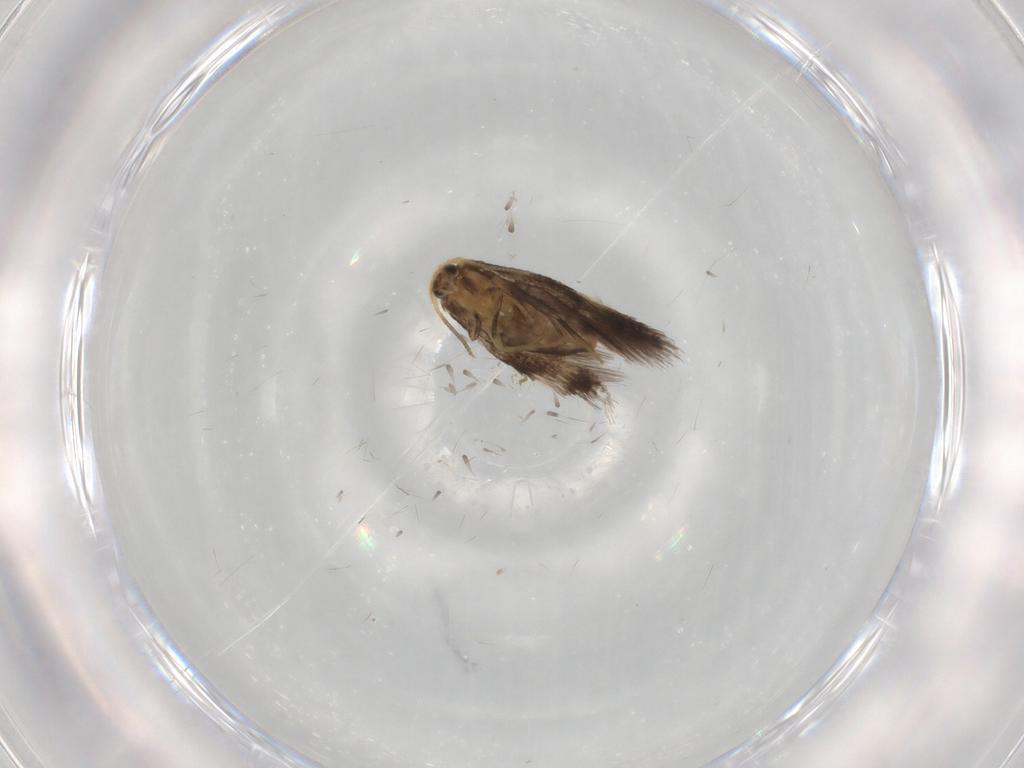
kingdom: Animalia
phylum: Arthropoda
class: Insecta
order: Lepidoptera
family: Nepticulidae
